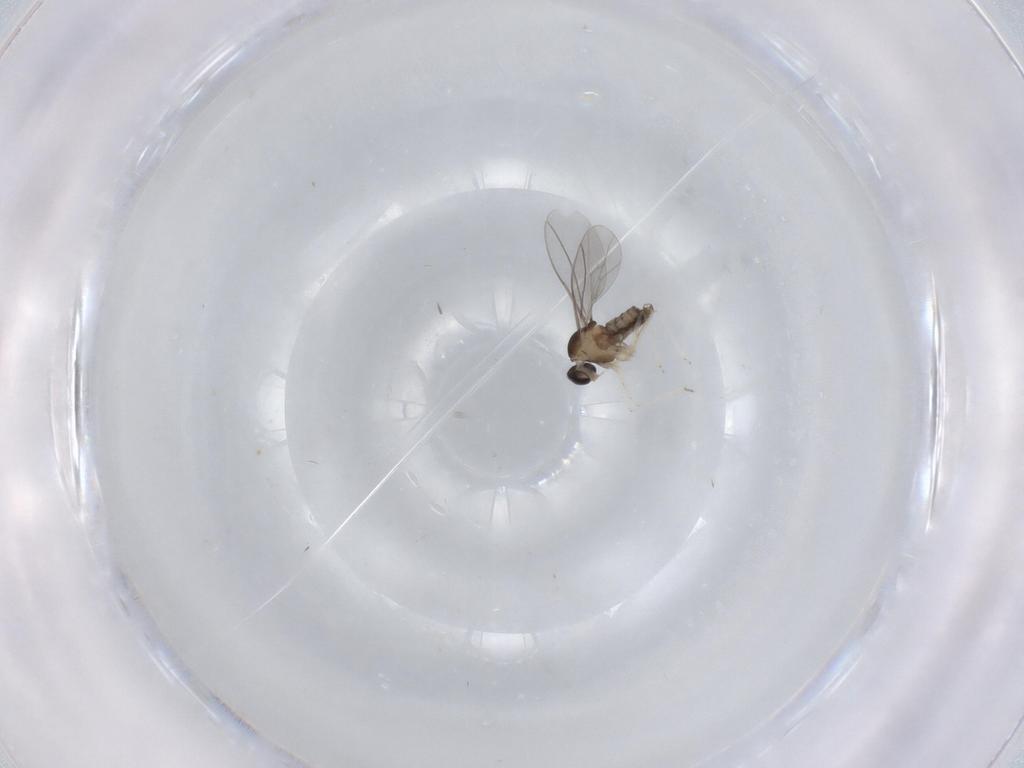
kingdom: Animalia
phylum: Arthropoda
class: Insecta
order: Diptera
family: Cecidomyiidae
